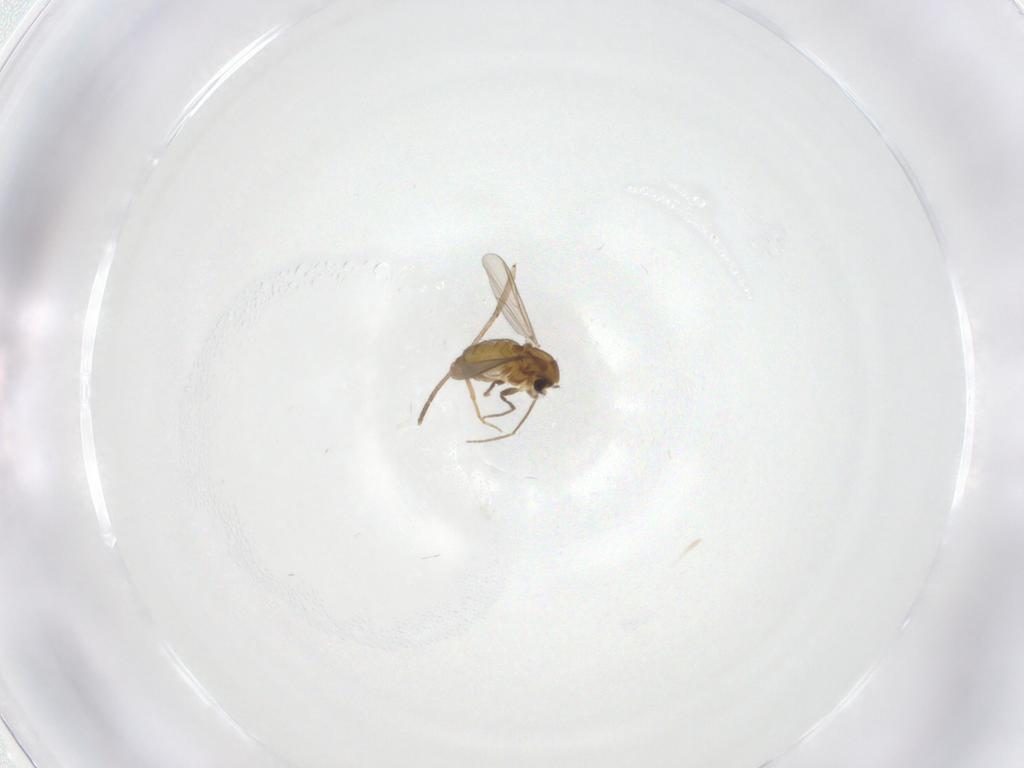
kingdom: Animalia
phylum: Arthropoda
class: Insecta
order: Diptera
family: Chironomidae
